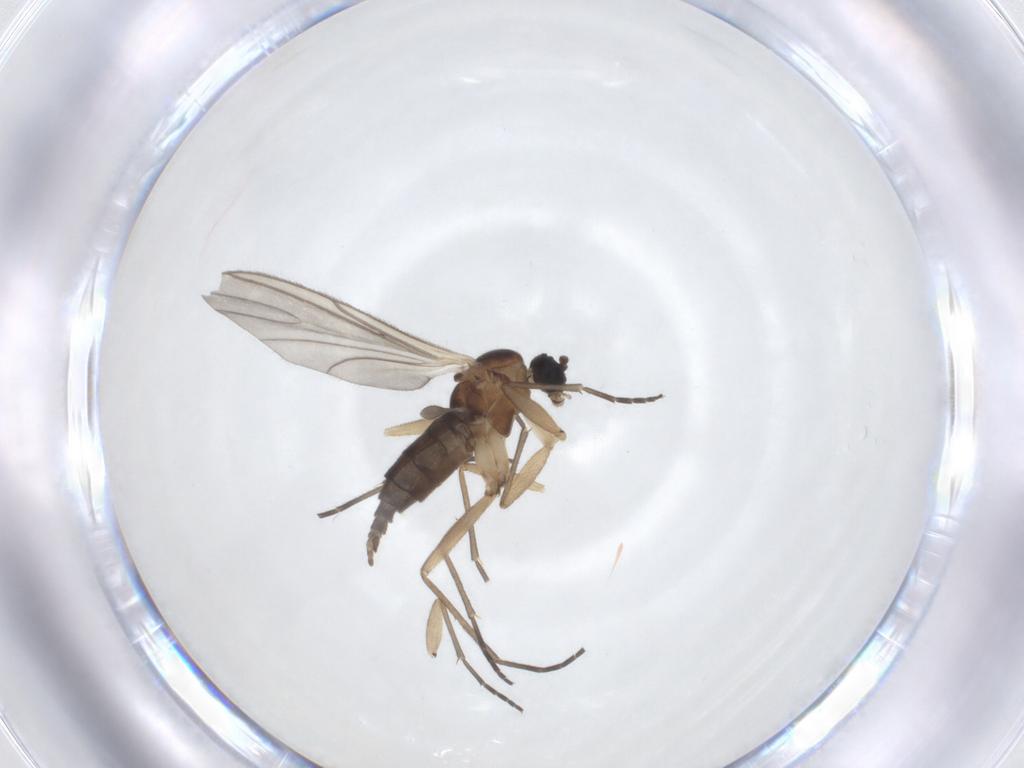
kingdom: Animalia
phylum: Arthropoda
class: Insecta
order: Diptera
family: Sciaridae
